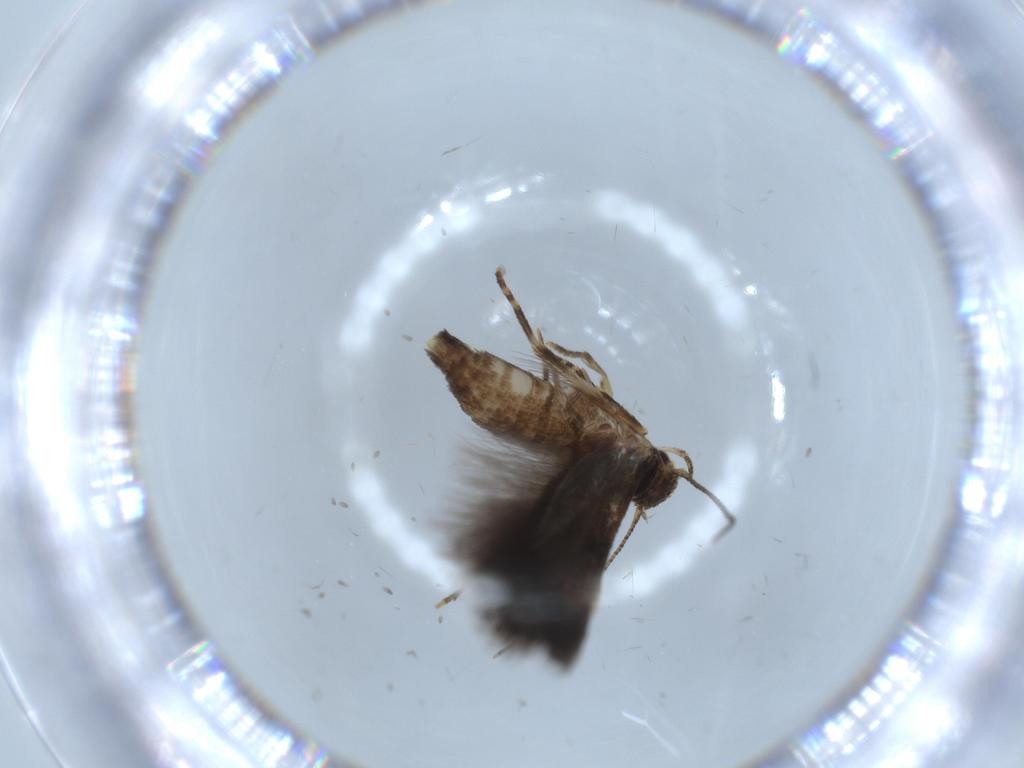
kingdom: Animalia
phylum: Arthropoda
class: Insecta
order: Lepidoptera
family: Gelechiidae
